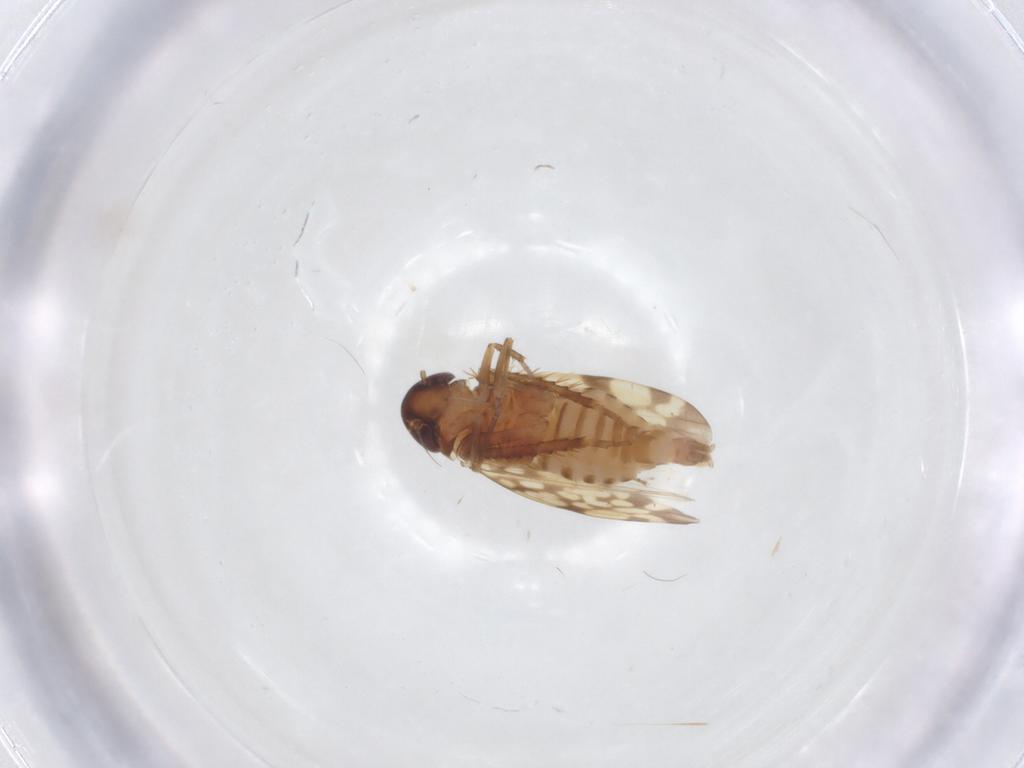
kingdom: Animalia
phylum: Arthropoda
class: Insecta
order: Hemiptera
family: Cicadellidae
